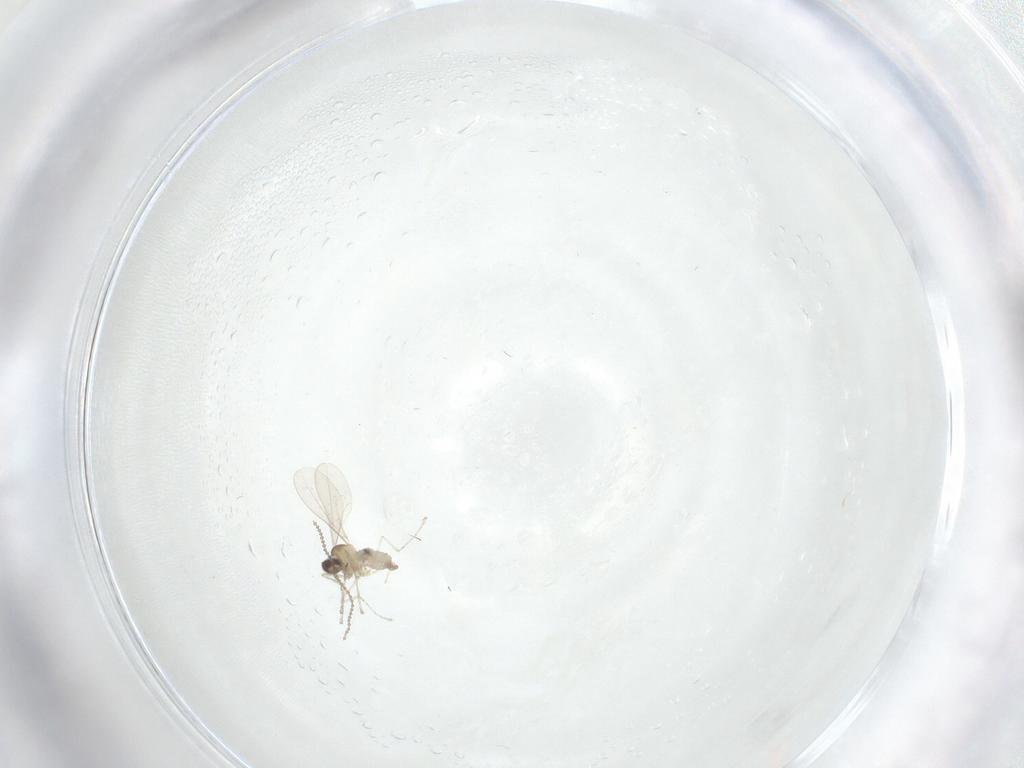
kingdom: Animalia
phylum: Arthropoda
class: Insecta
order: Diptera
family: Cecidomyiidae
